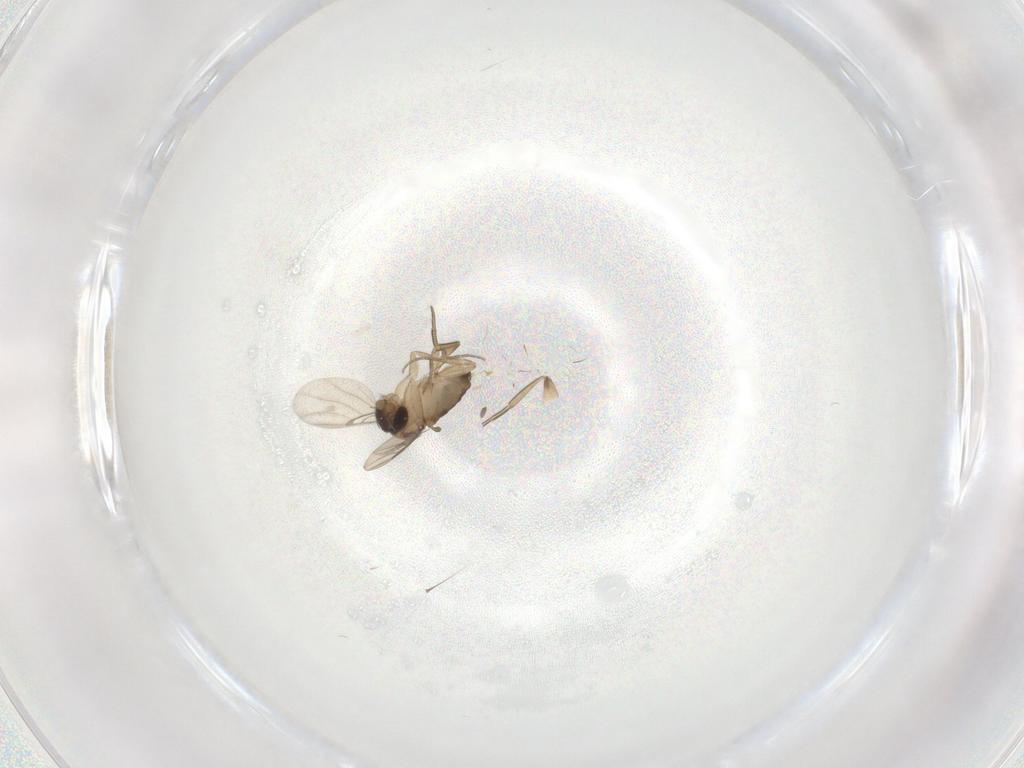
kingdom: Animalia
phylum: Arthropoda
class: Insecta
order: Diptera
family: Phoridae
